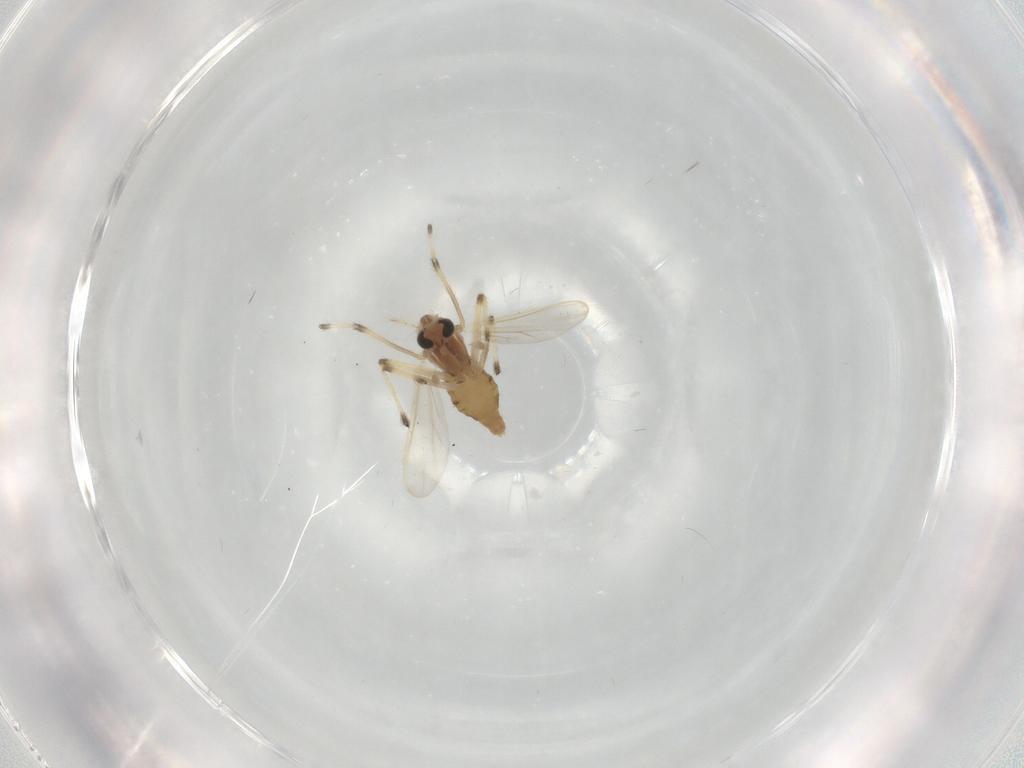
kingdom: Animalia
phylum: Arthropoda
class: Insecta
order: Diptera
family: Chironomidae
